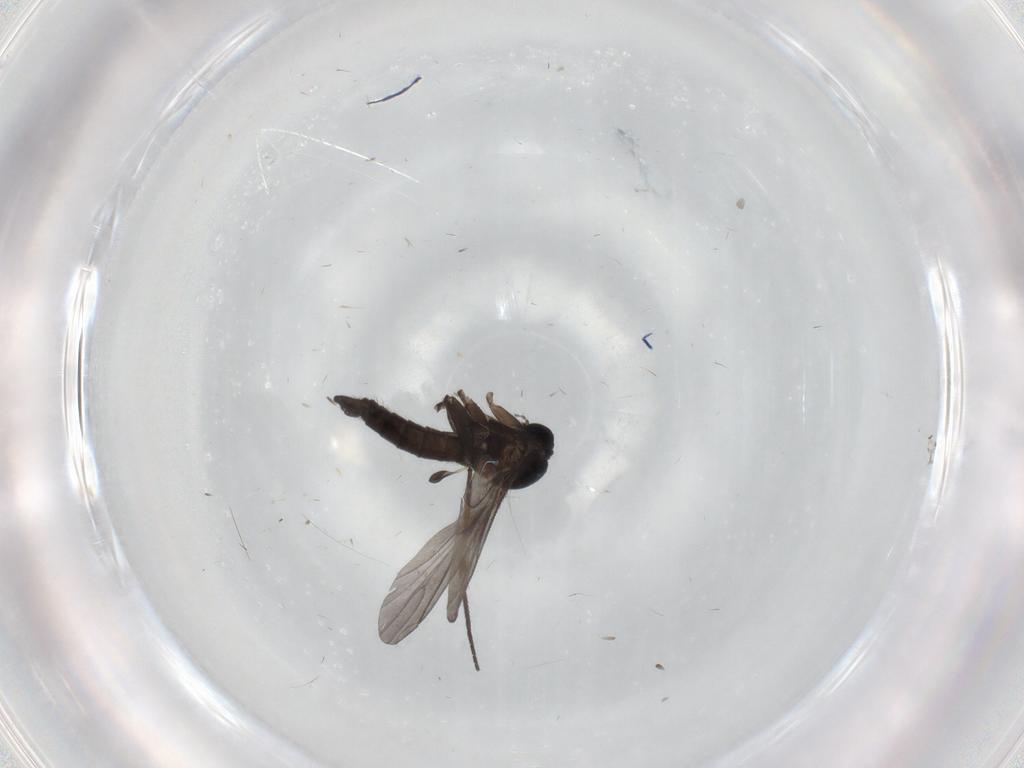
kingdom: Animalia
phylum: Arthropoda
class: Insecta
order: Diptera
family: Sciaridae
